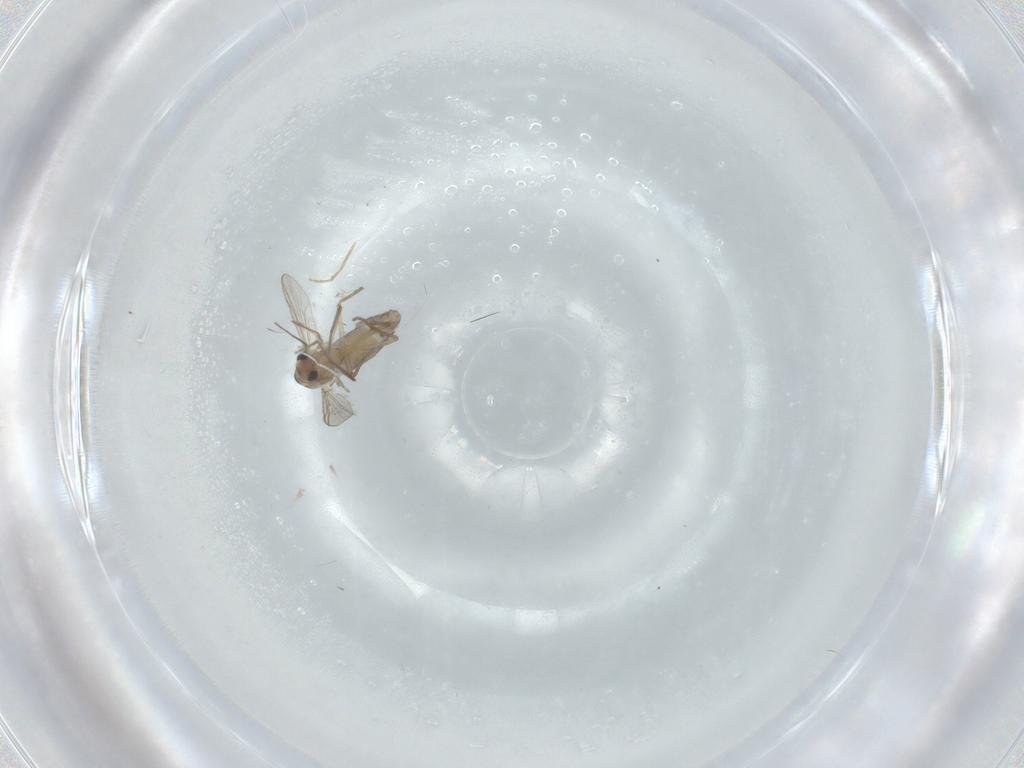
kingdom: Animalia
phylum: Arthropoda
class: Insecta
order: Diptera
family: Chironomidae
